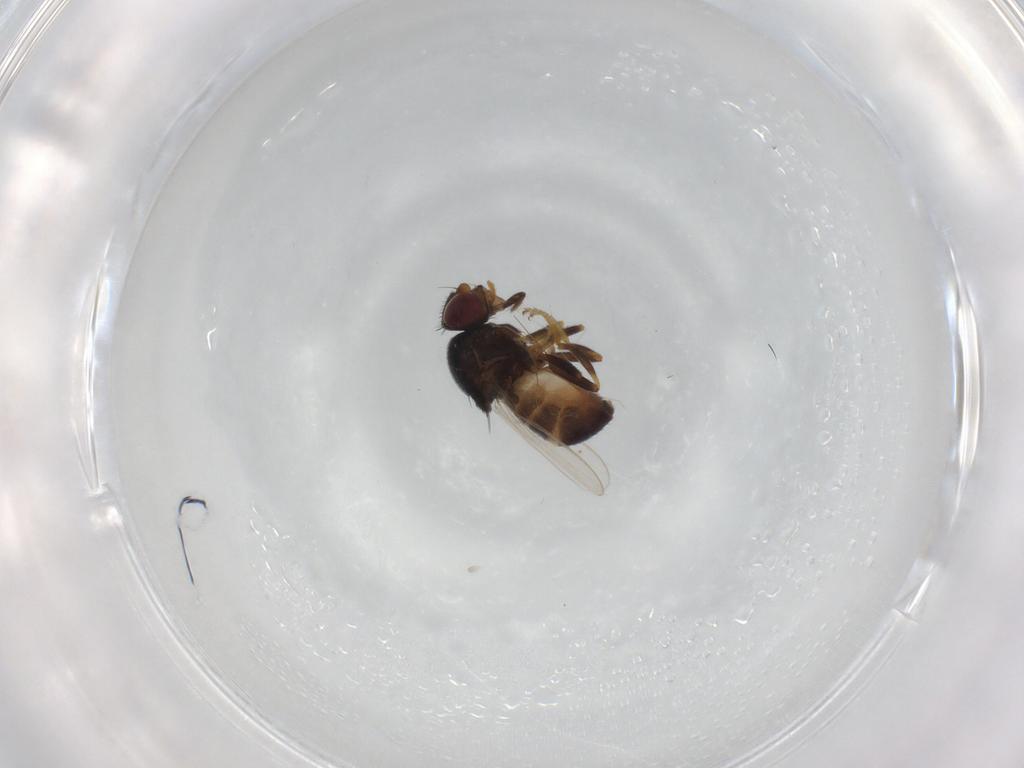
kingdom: Animalia
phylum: Arthropoda
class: Insecta
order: Diptera
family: Chloropidae
